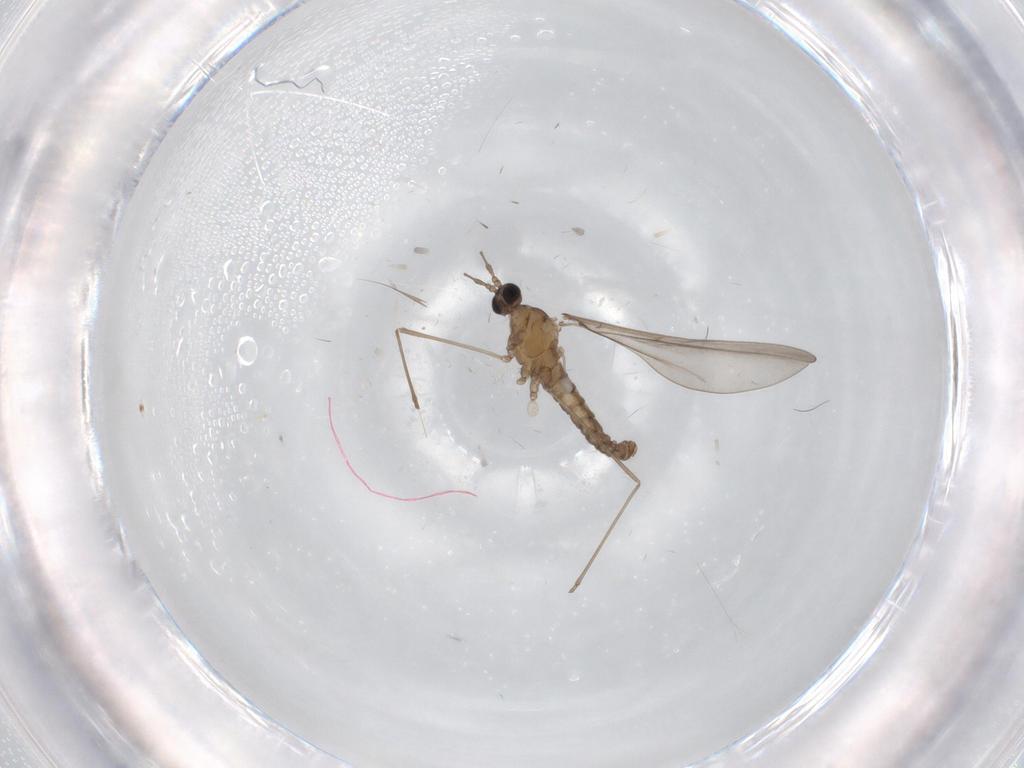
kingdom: Animalia
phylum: Arthropoda
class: Insecta
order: Diptera
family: Cecidomyiidae
